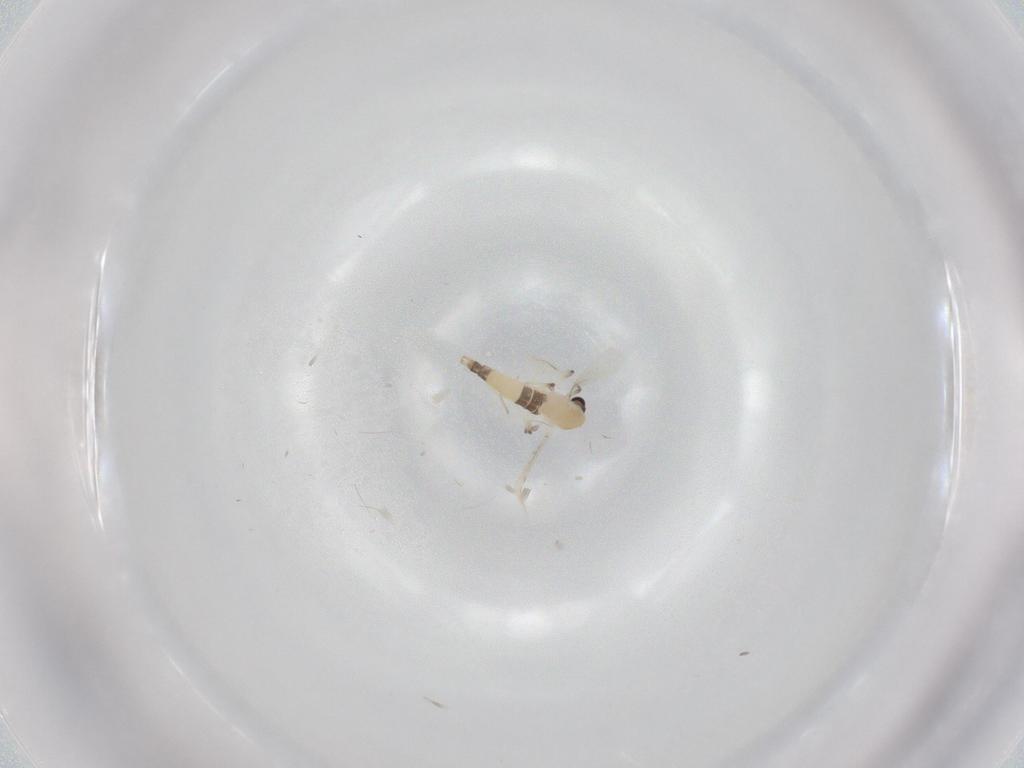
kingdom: Animalia
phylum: Arthropoda
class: Insecta
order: Diptera
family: Chironomidae
